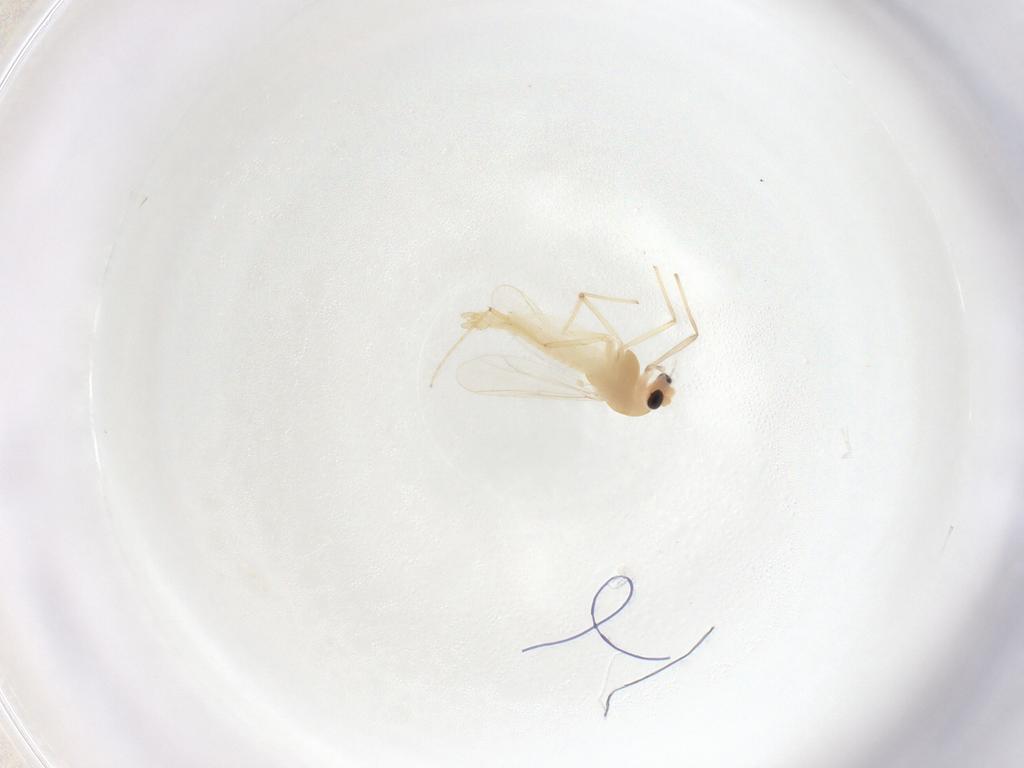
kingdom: Animalia
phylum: Arthropoda
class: Insecta
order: Diptera
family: Chironomidae
